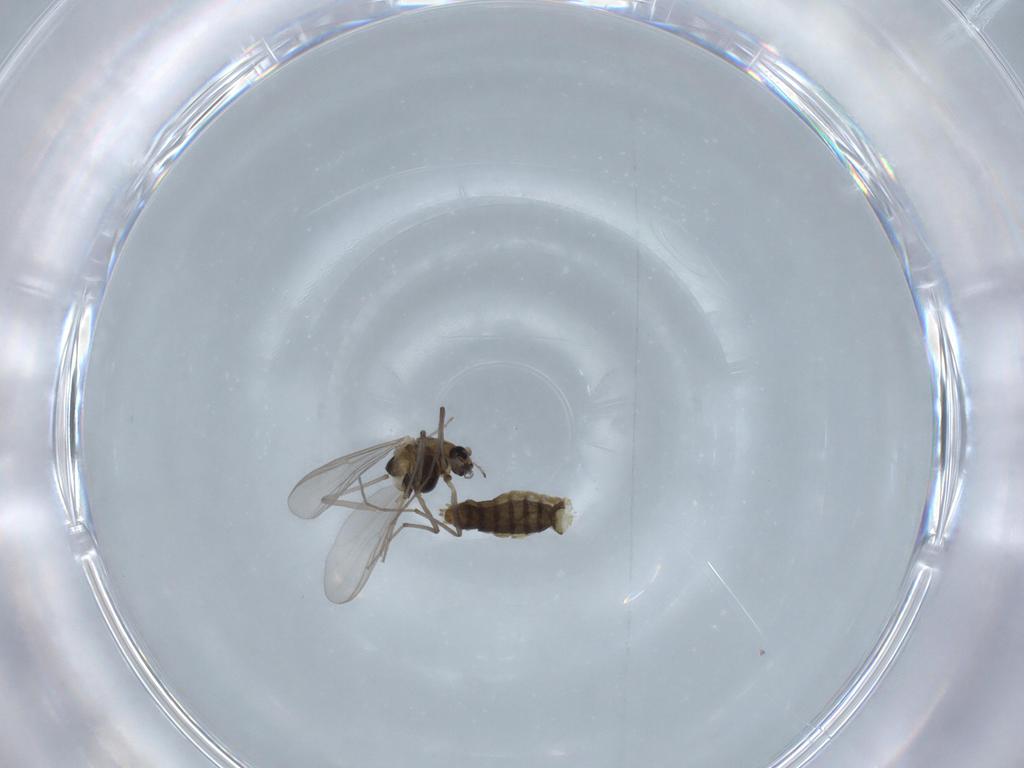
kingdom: Animalia
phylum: Arthropoda
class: Insecta
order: Diptera
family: Chironomidae
